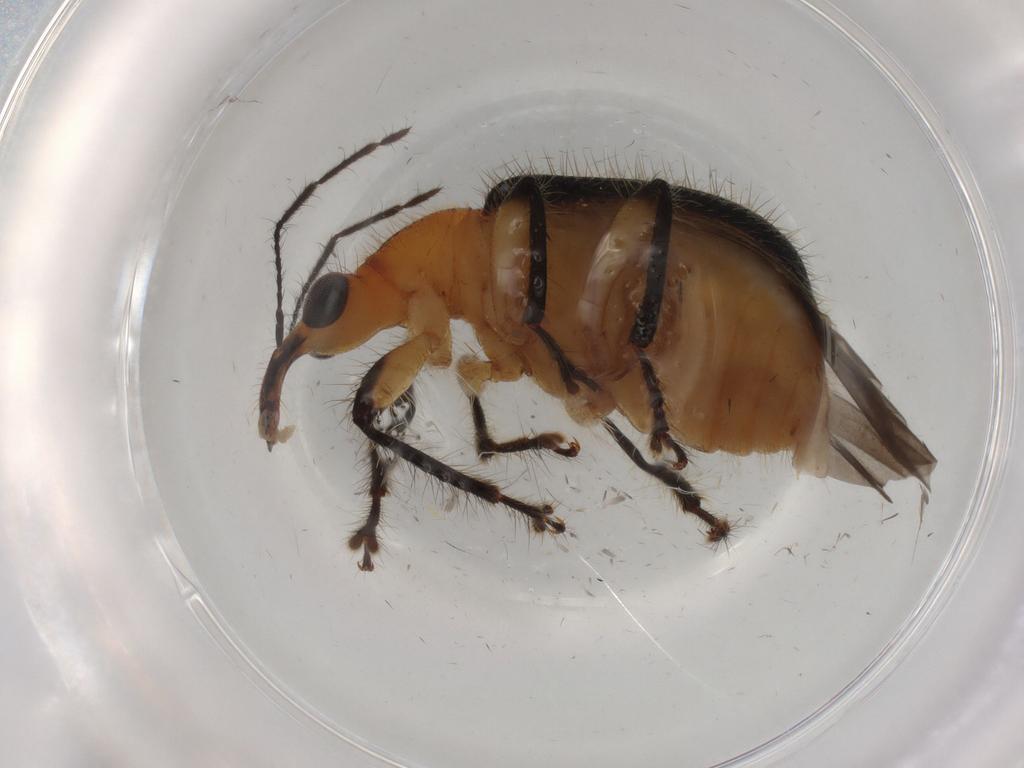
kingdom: Animalia
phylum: Arthropoda
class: Insecta
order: Coleoptera
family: Attelabidae
